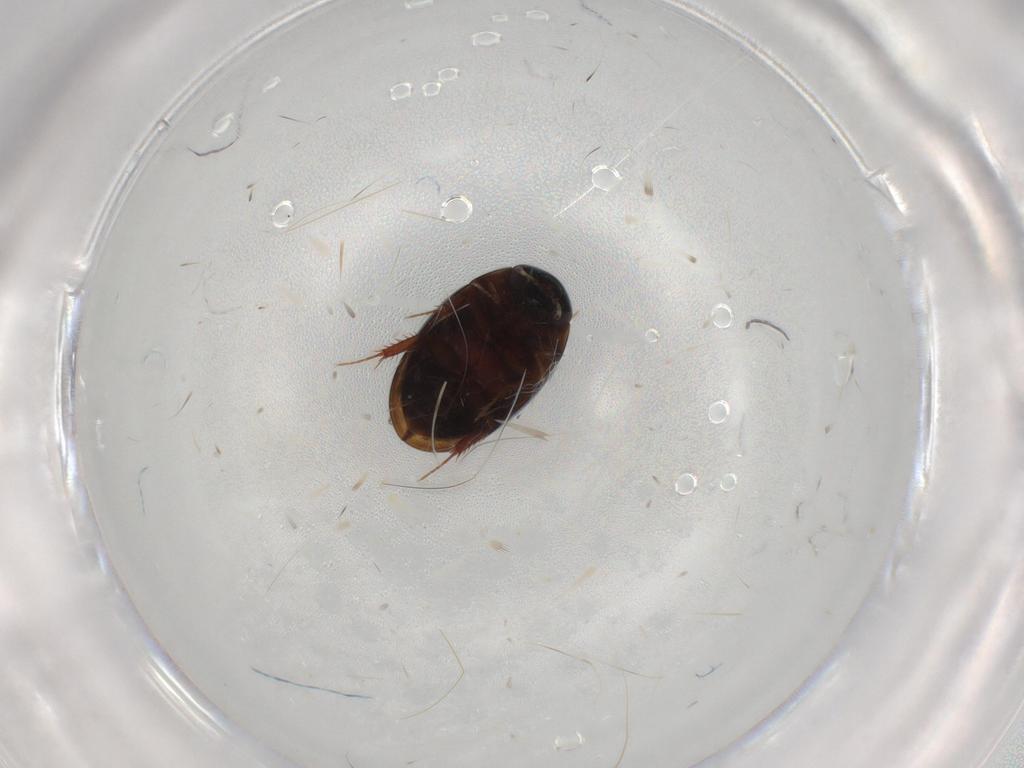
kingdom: Animalia
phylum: Arthropoda
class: Insecta
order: Coleoptera
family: Hydrophilidae
